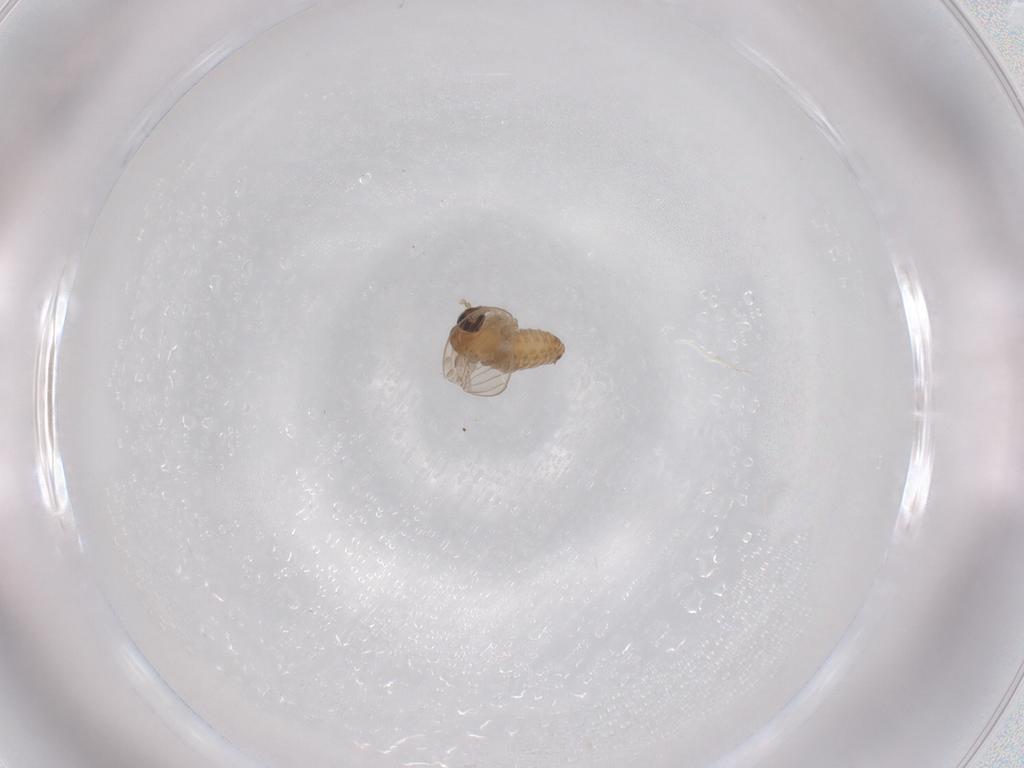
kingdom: Animalia
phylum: Arthropoda
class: Insecta
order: Diptera
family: Psychodidae
